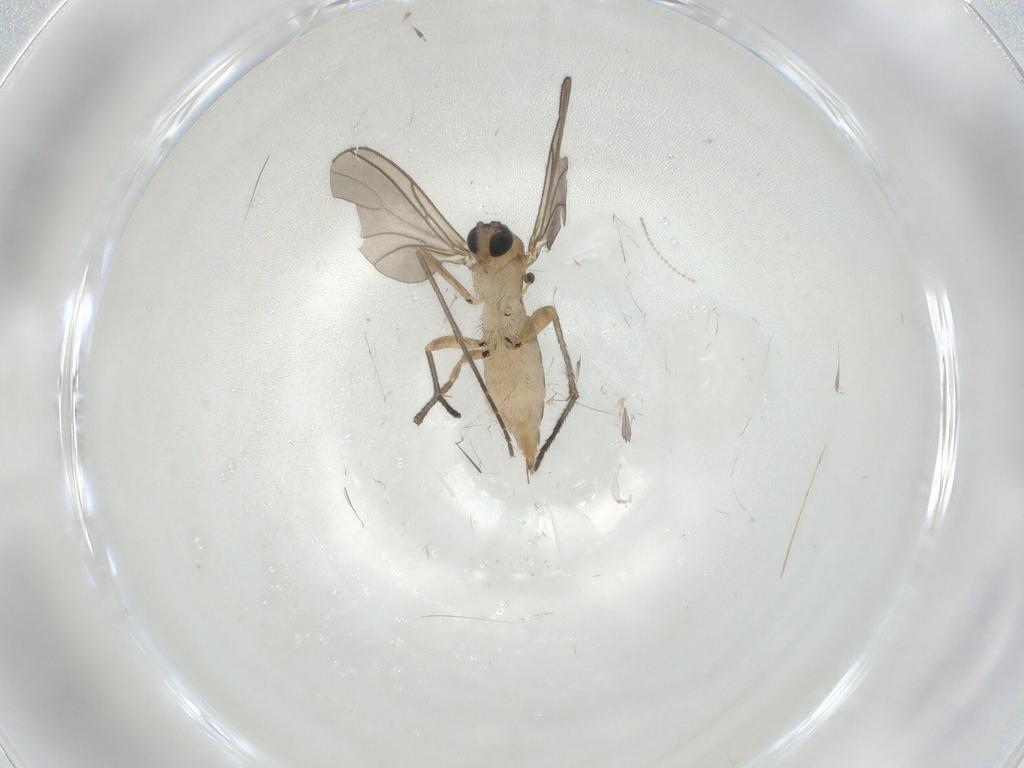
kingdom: Animalia
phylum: Arthropoda
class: Insecta
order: Diptera
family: Sciaridae
